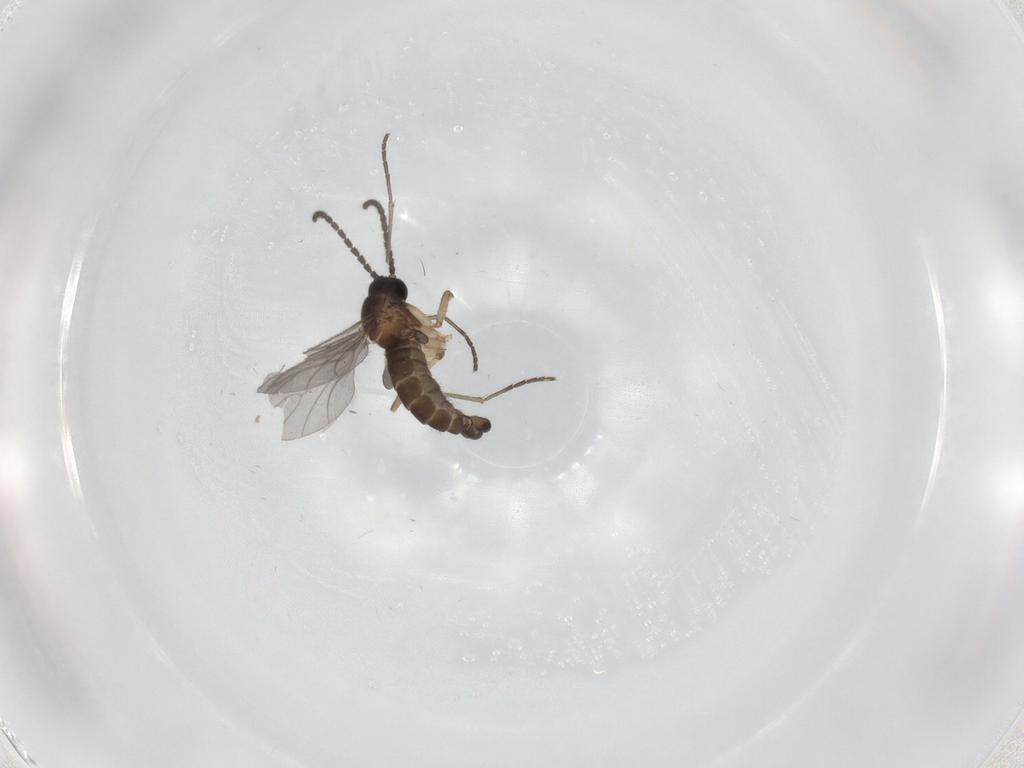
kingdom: Animalia
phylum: Arthropoda
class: Insecta
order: Diptera
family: Sciaridae
